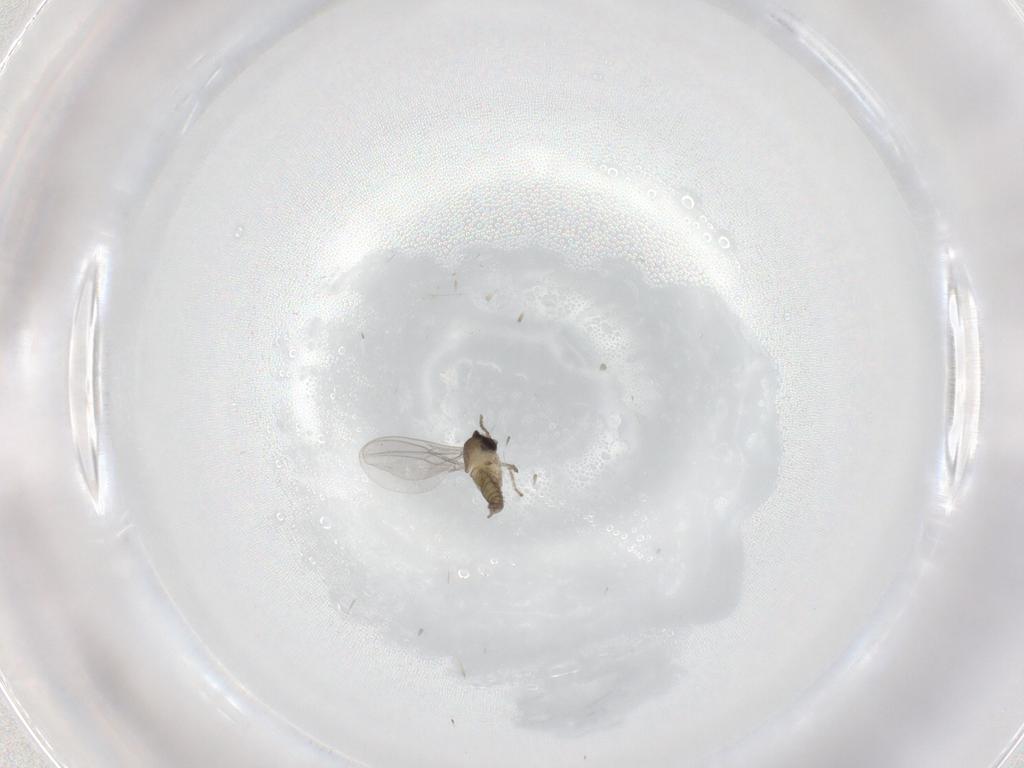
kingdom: Animalia
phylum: Arthropoda
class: Insecta
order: Diptera
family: Cecidomyiidae
